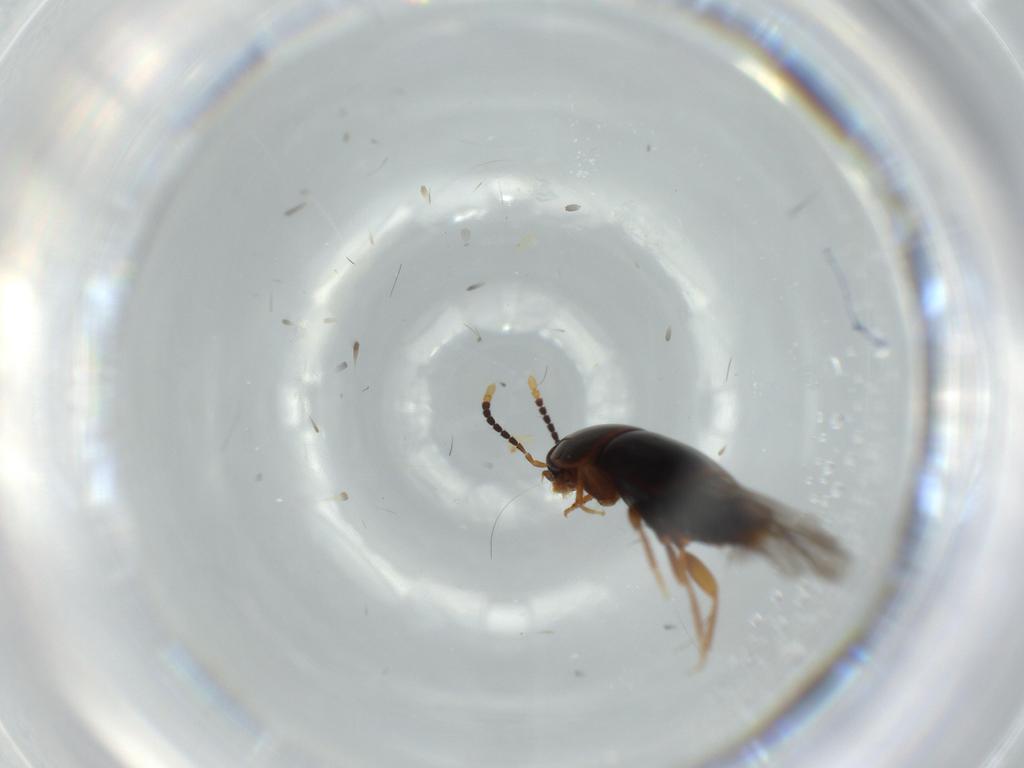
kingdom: Animalia
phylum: Arthropoda
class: Insecta
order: Coleoptera
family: Staphylinidae
